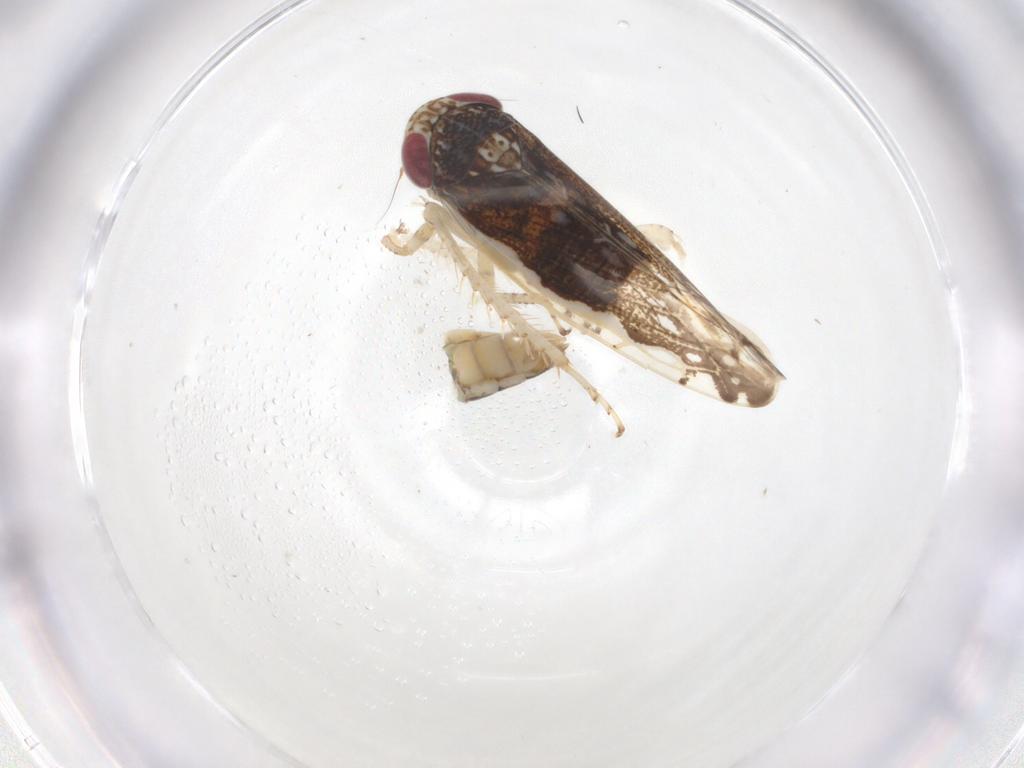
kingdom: Animalia
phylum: Arthropoda
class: Insecta
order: Hemiptera
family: Cicadellidae
